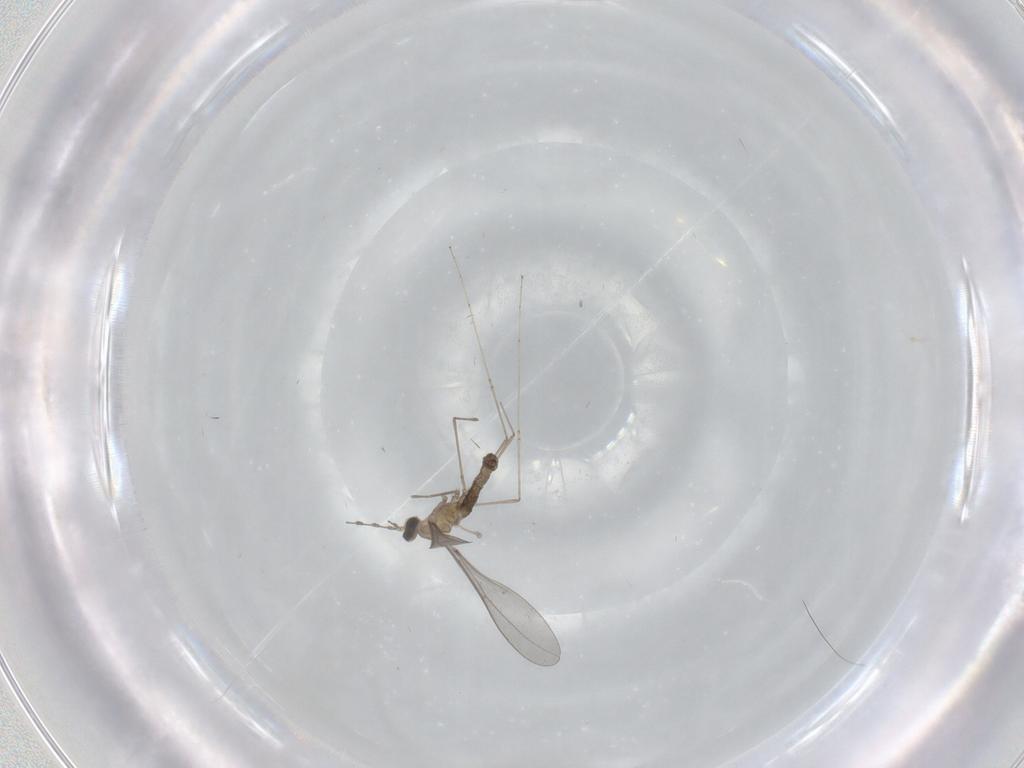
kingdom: Animalia
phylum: Arthropoda
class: Insecta
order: Diptera
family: Cecidomyiidae
